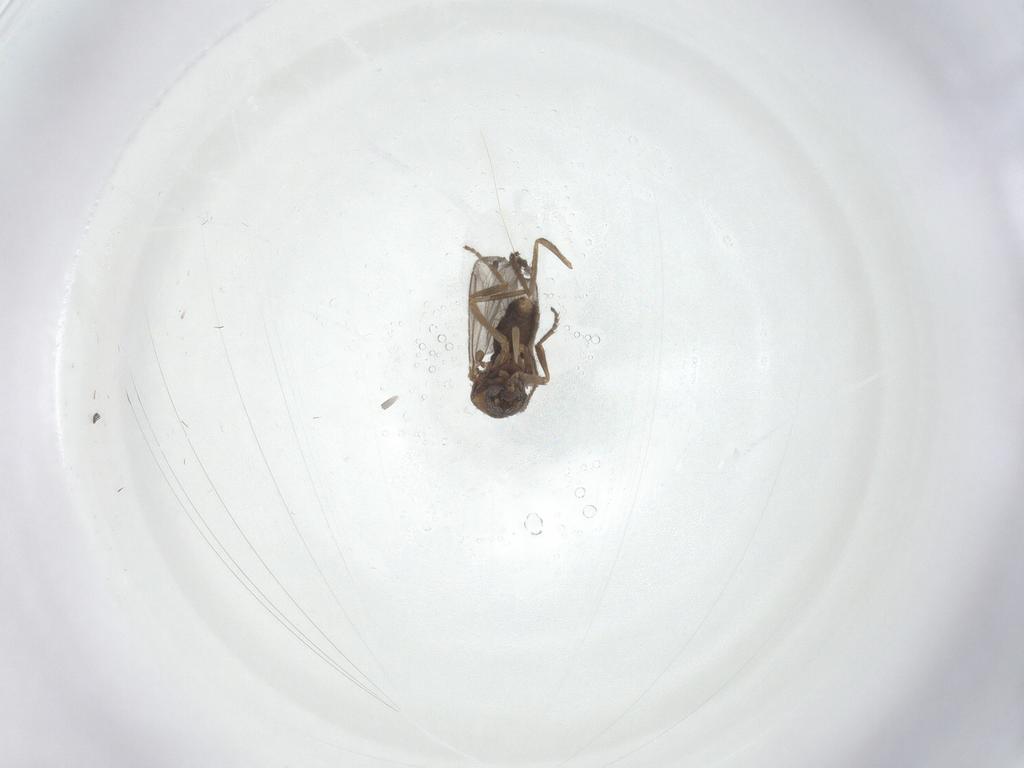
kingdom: Animalia
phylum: Arthropoda
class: Insecta
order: Diptera
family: Ceratopogonidae
